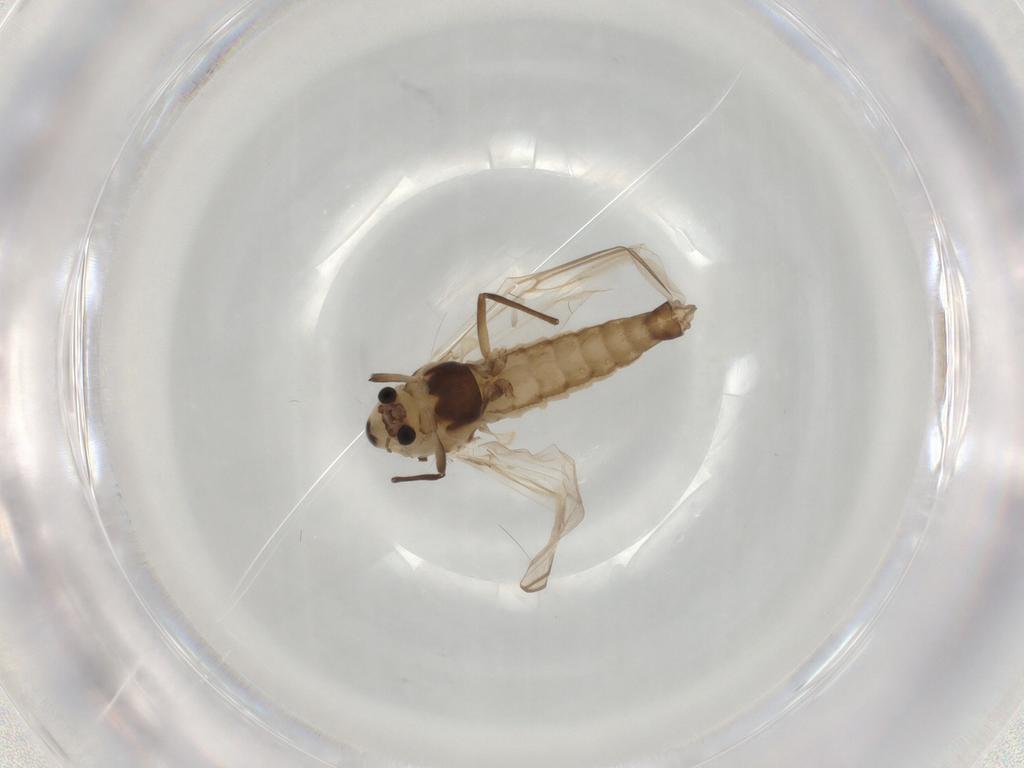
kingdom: Animalia
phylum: Arthropoda
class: Insecta
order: Diptera
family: Chironomidae
